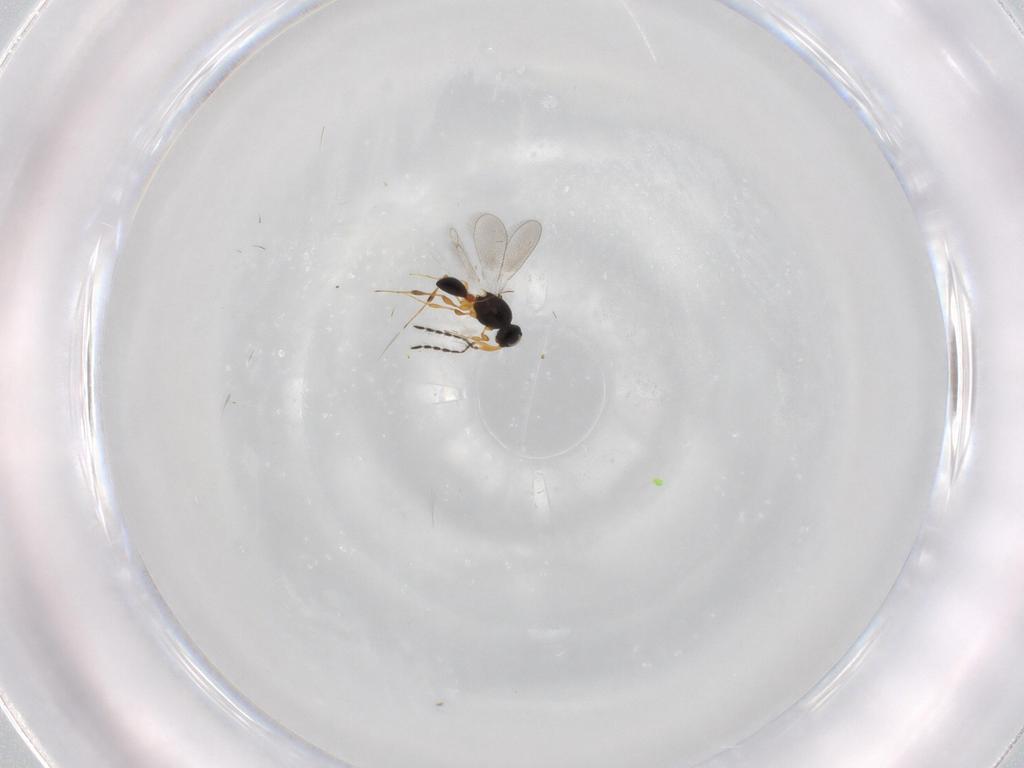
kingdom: Animalia
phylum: Arthropoda
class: Insecta
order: Hymenoptera
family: Platygastridae
